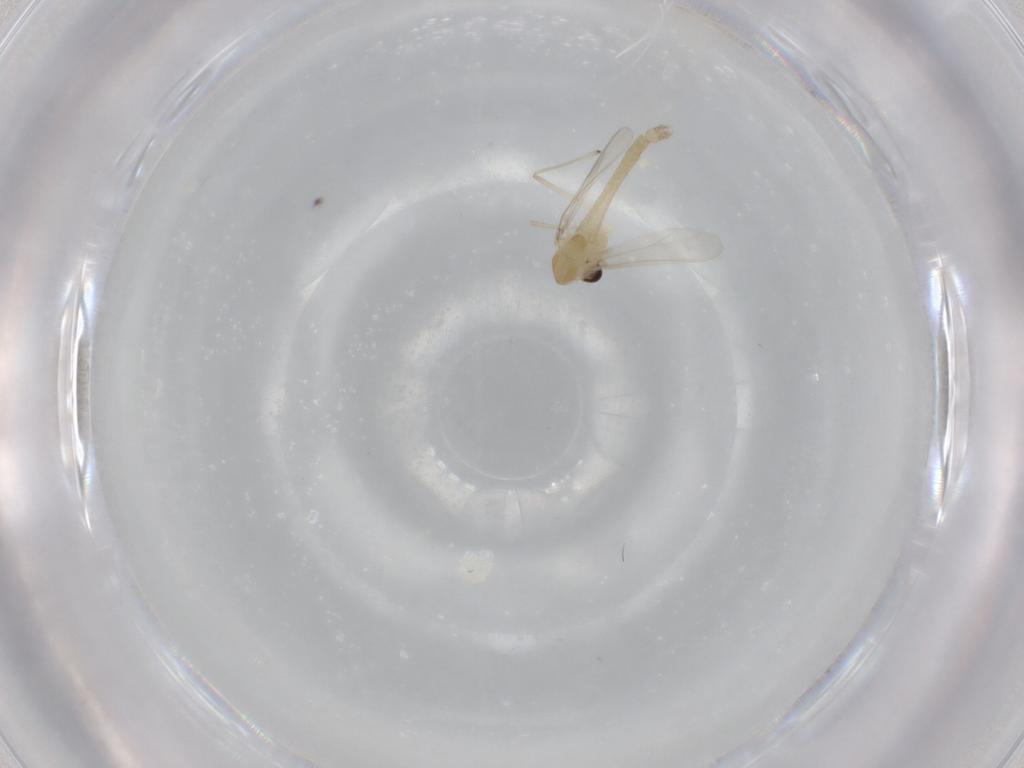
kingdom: Animalia
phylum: Arthropoda
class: Insecta
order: Diptera
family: Chironomidae
